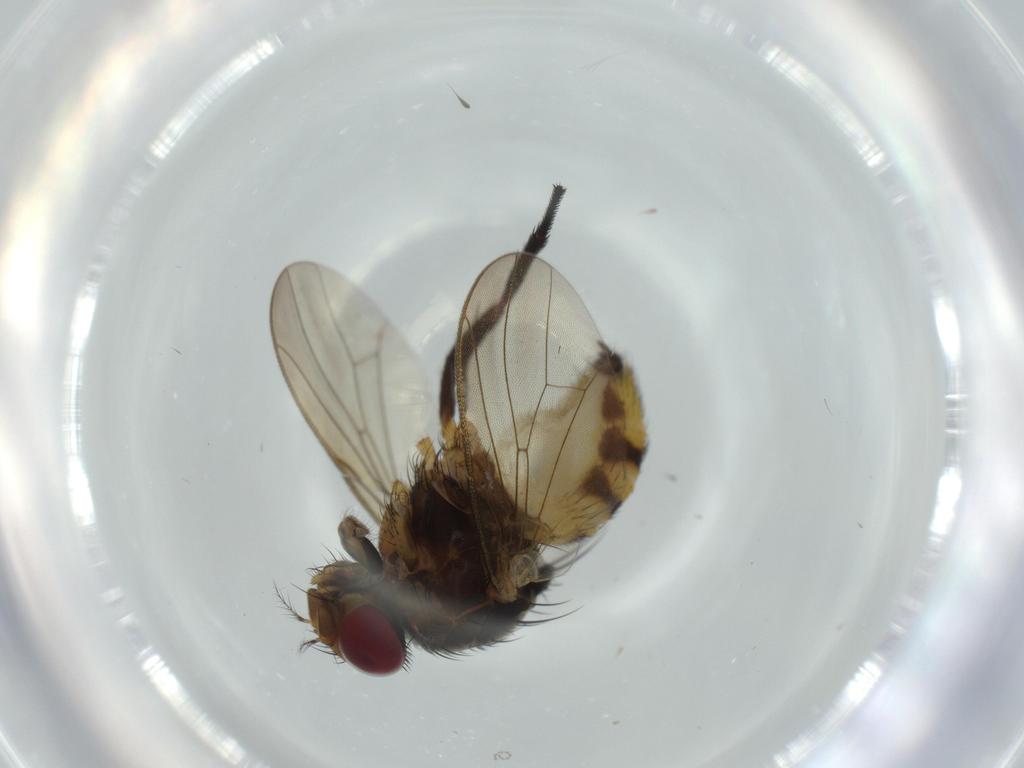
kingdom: Animalia
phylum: Arthropoda
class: Insecta
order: Diptera
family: Anthomyiidae
